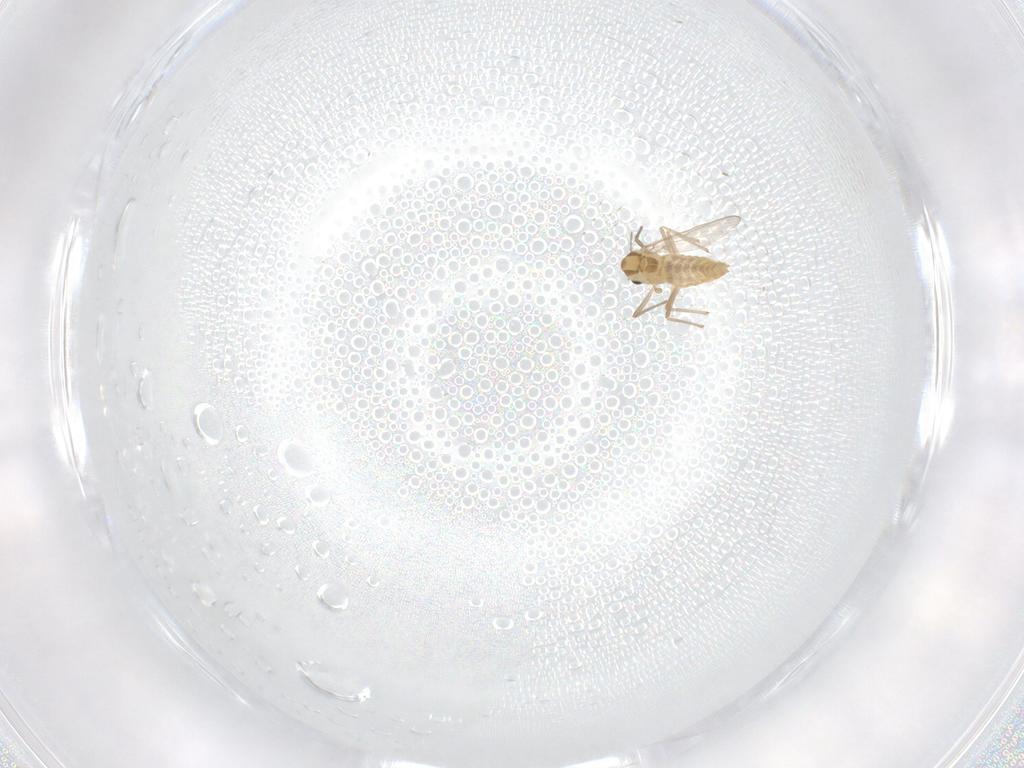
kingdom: Animalia
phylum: Arthropoda
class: Insecta
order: Diptera
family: Chironomidae
